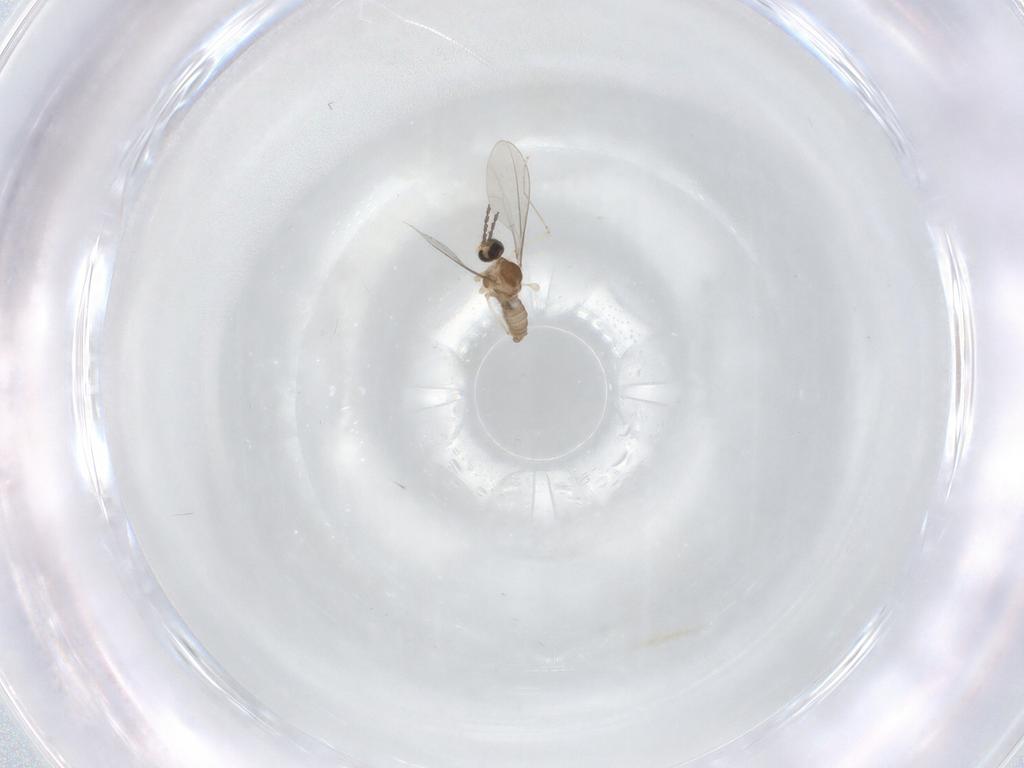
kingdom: Animalia
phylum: Arthropoda
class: Insecta
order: Diptera
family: Cecidomyiidae
